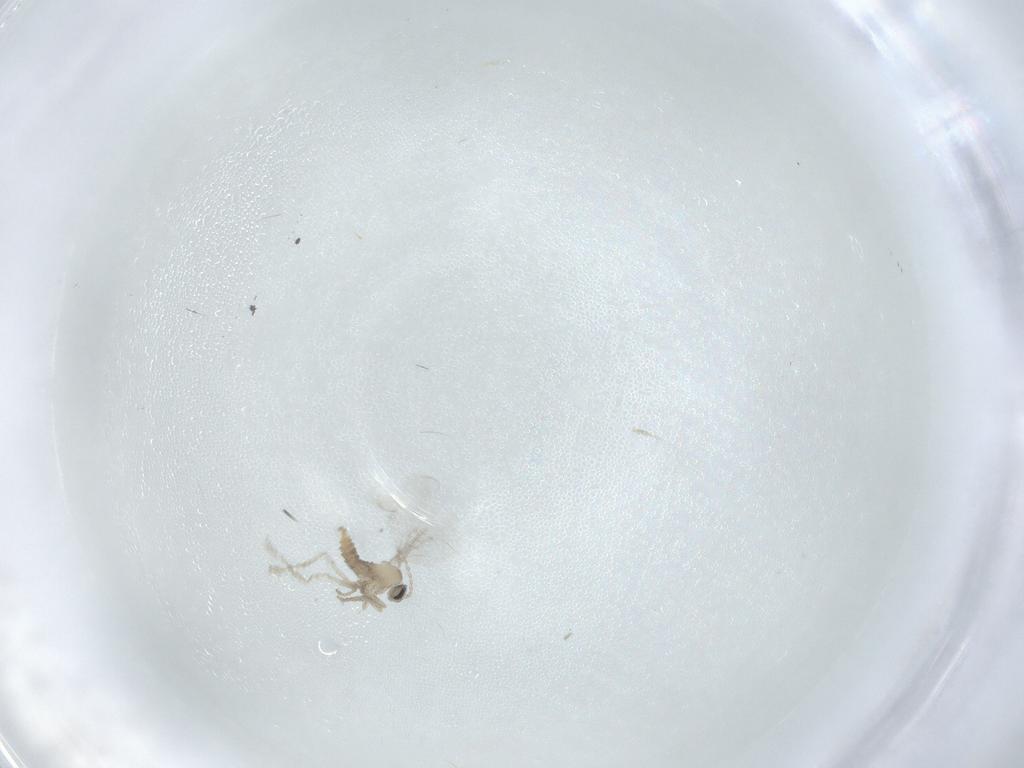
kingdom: Animalia
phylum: Arthropoda
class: Insecta
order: Diptera
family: Cecidomyiidae
